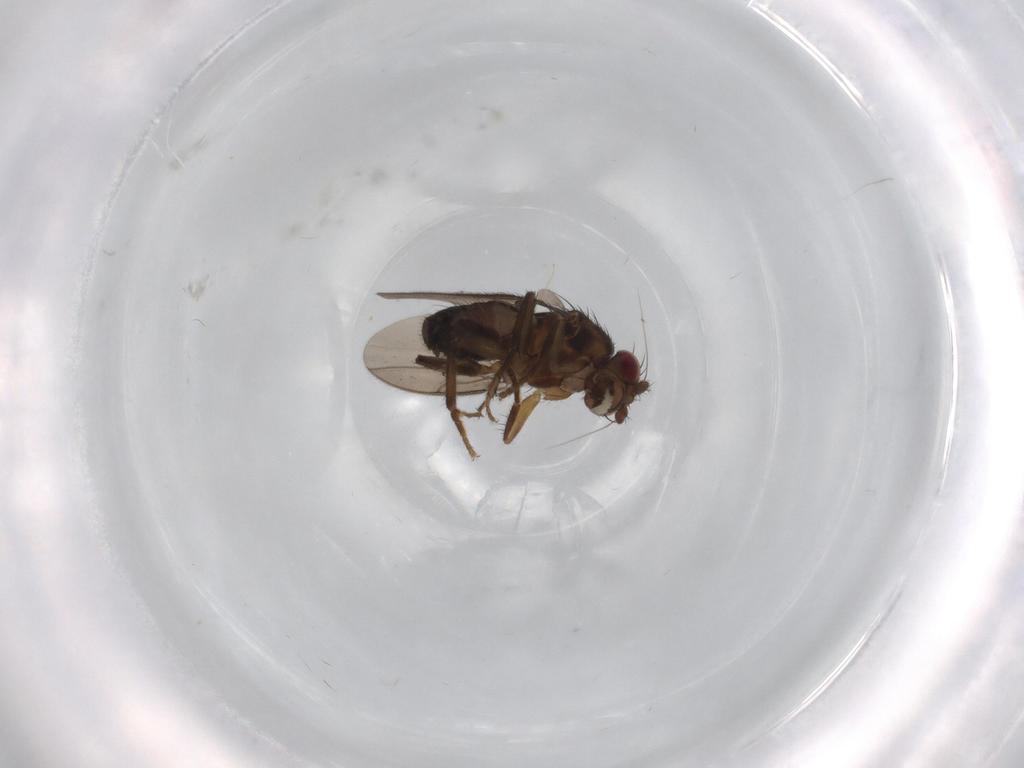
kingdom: Animalia
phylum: Arthropoda
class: Insecta
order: Diptera
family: Sphaeroceridae
